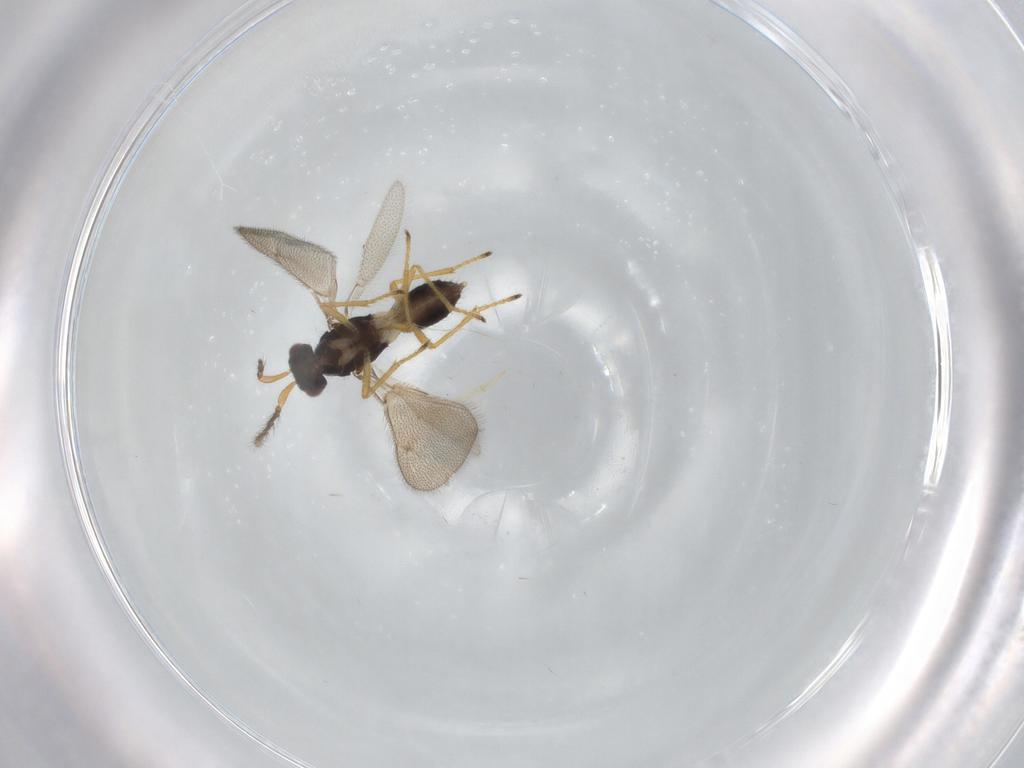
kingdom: Animalia
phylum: Arthropoda
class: Insecta
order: Hymenoptera
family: Eulophidae
